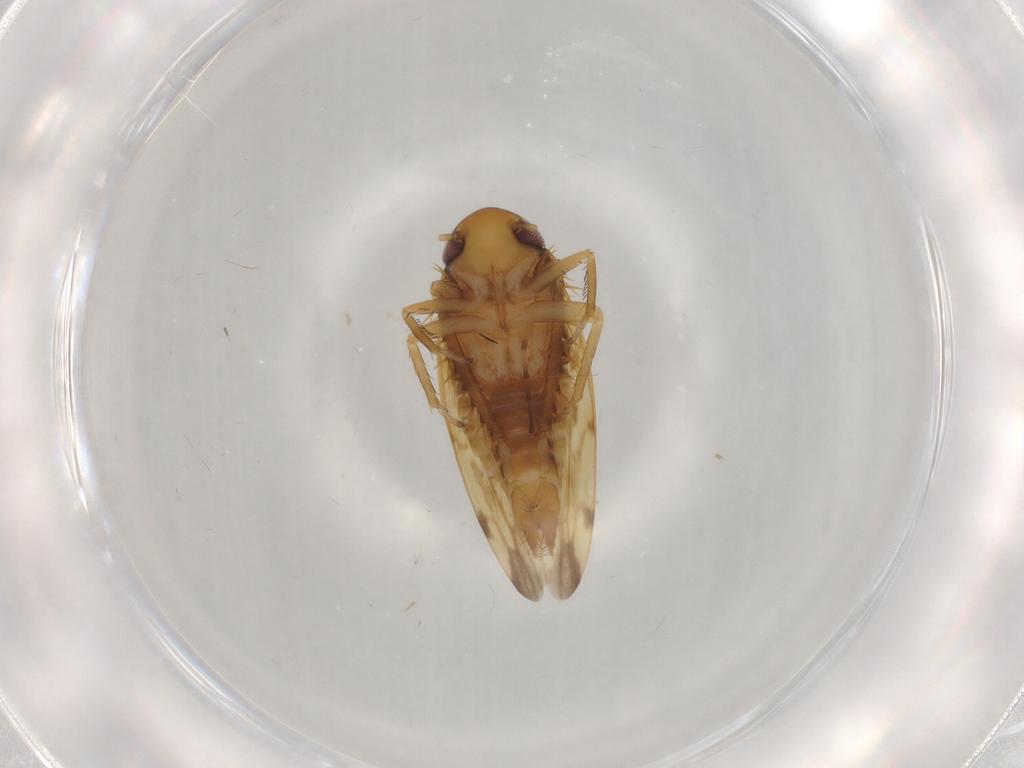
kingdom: Animalia
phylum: Arthropoda
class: Insecta
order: Hemiptera
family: Cicadellidae
